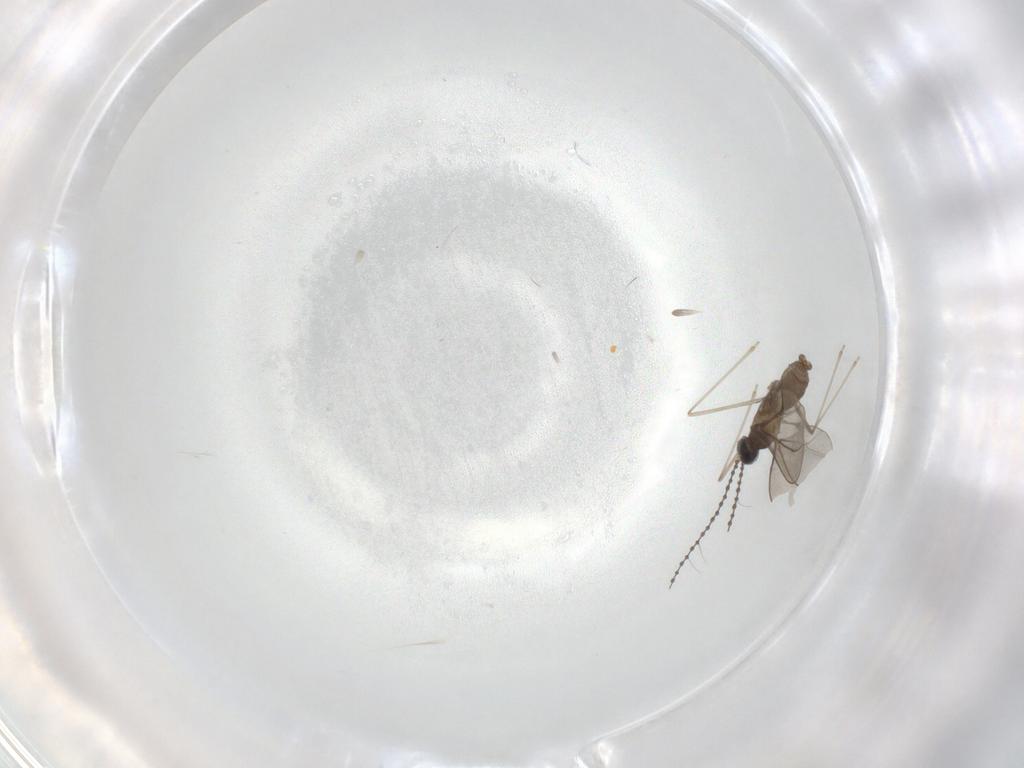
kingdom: Animalia
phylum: Arthropoda
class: Insecta
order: Diptera
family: Cecidomyiidae
